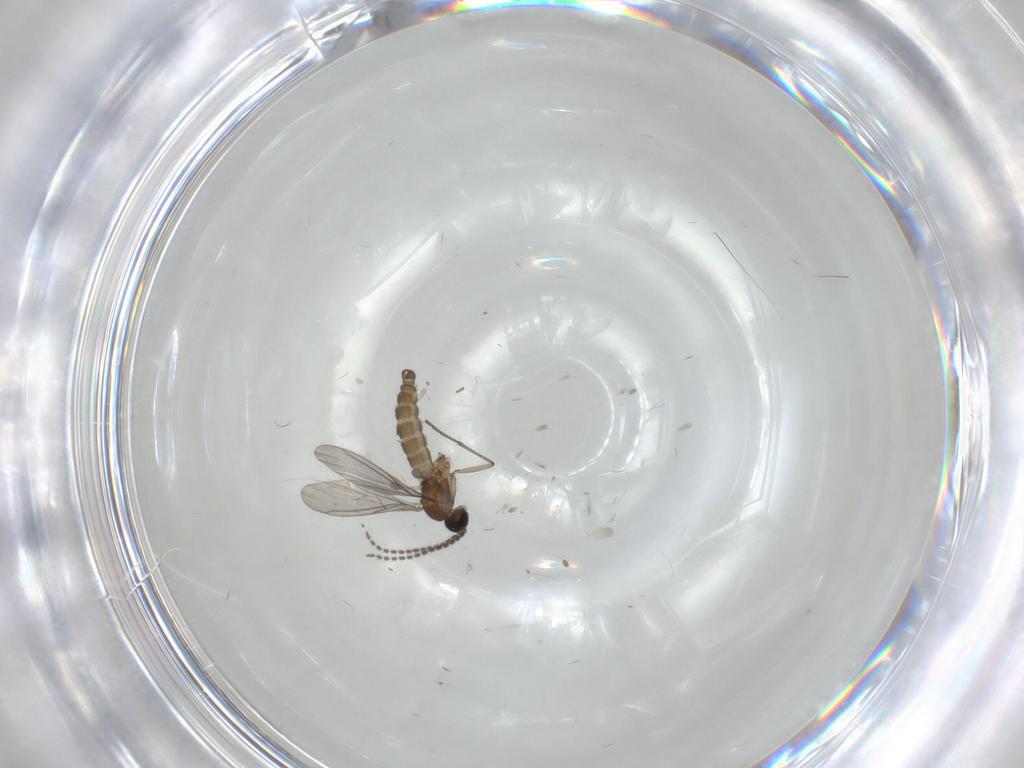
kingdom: Animalia
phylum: Arthropoda
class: Insecta
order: Diptera
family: Sciaridae
